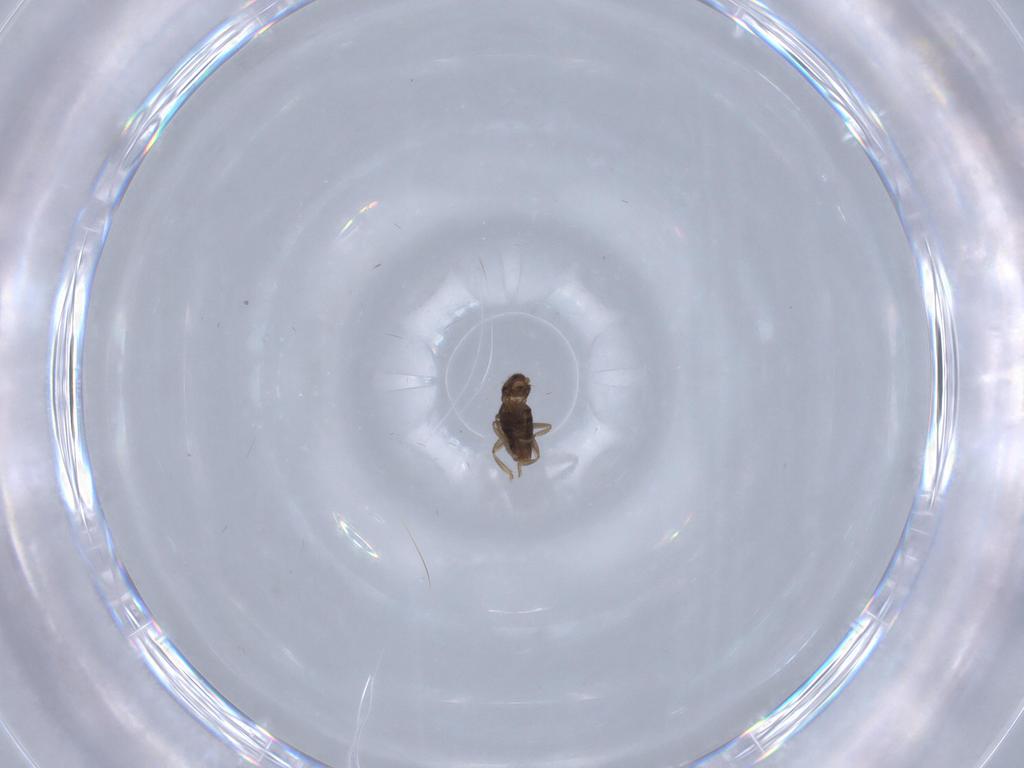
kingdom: Animalia
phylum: Arthropoda
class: Insecta
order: Diptera
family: Phoridae
